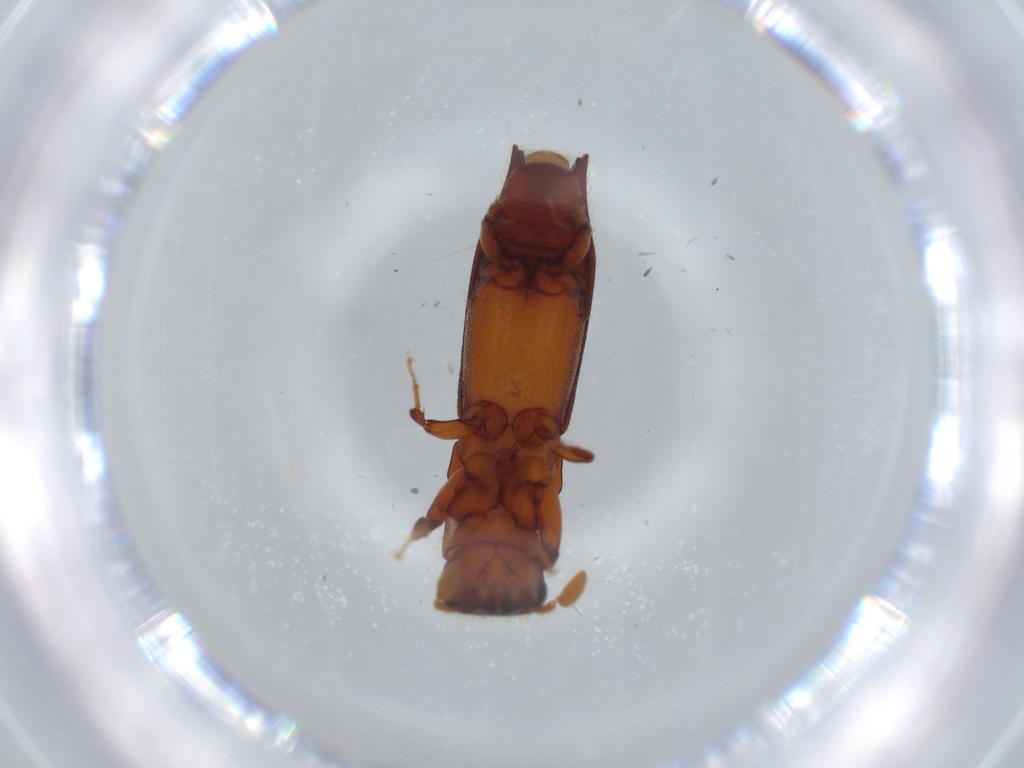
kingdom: Animalia
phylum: Arthropoda
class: Insecta
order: Coleoptera
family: Curculionidae
